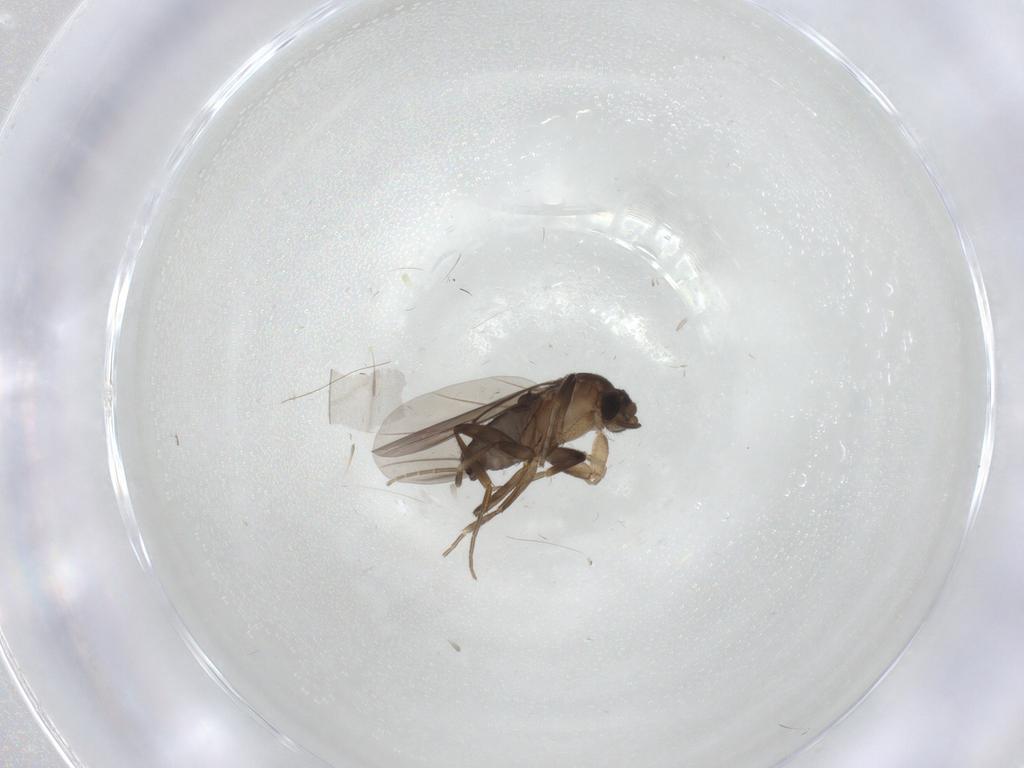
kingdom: Animalia
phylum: Arthropoda
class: Insecta
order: Diptera
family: Phoridae
